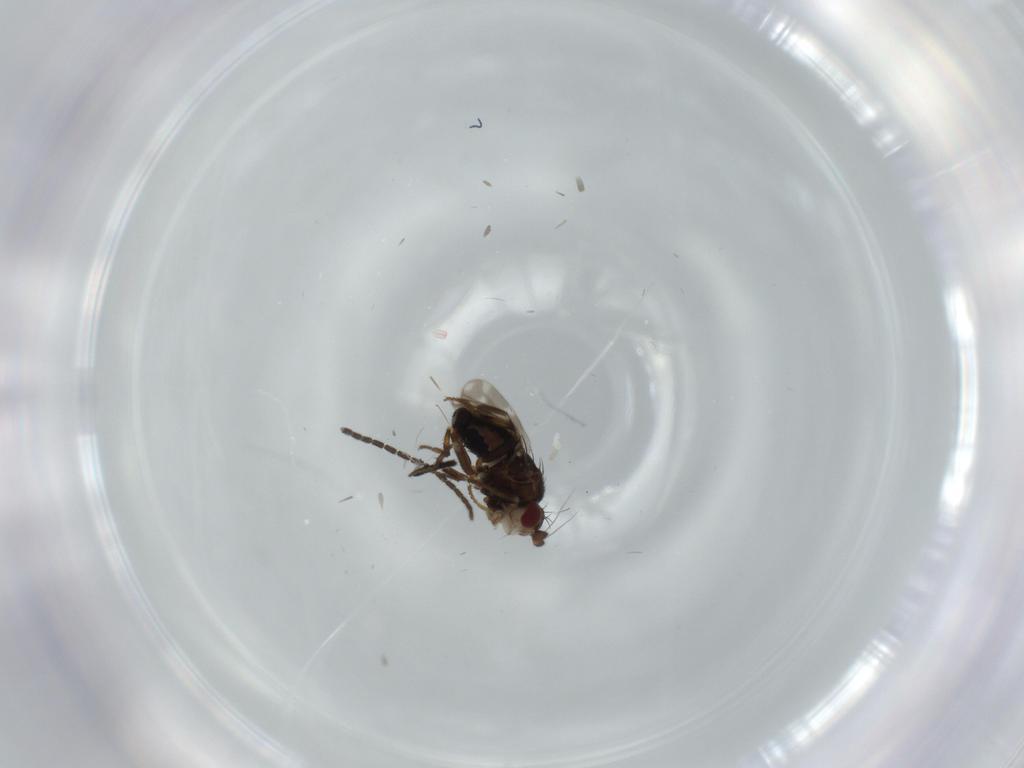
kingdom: Animalia
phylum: Arthropoda
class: Insecta
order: Diptera
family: Sphaeroceridae
